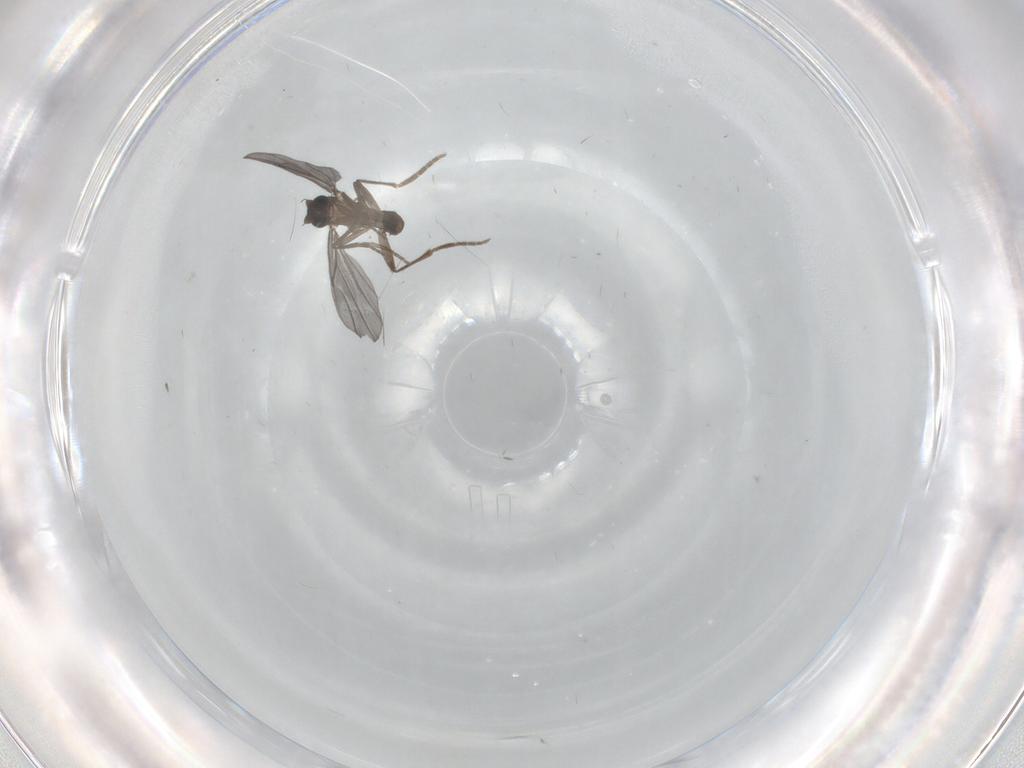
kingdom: Animalia
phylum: Arthropoda
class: Insecta
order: Diptera
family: Phoridae
